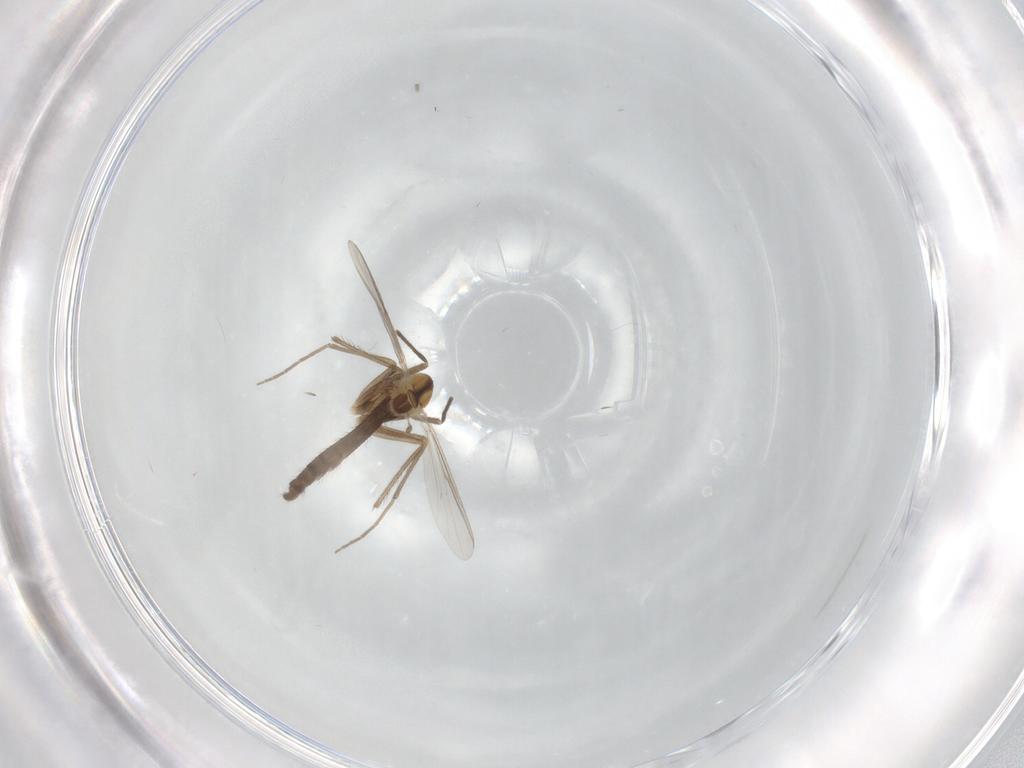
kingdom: Animalia
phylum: Arthropoda
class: Insecta
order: Diptera
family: Chironomidae
